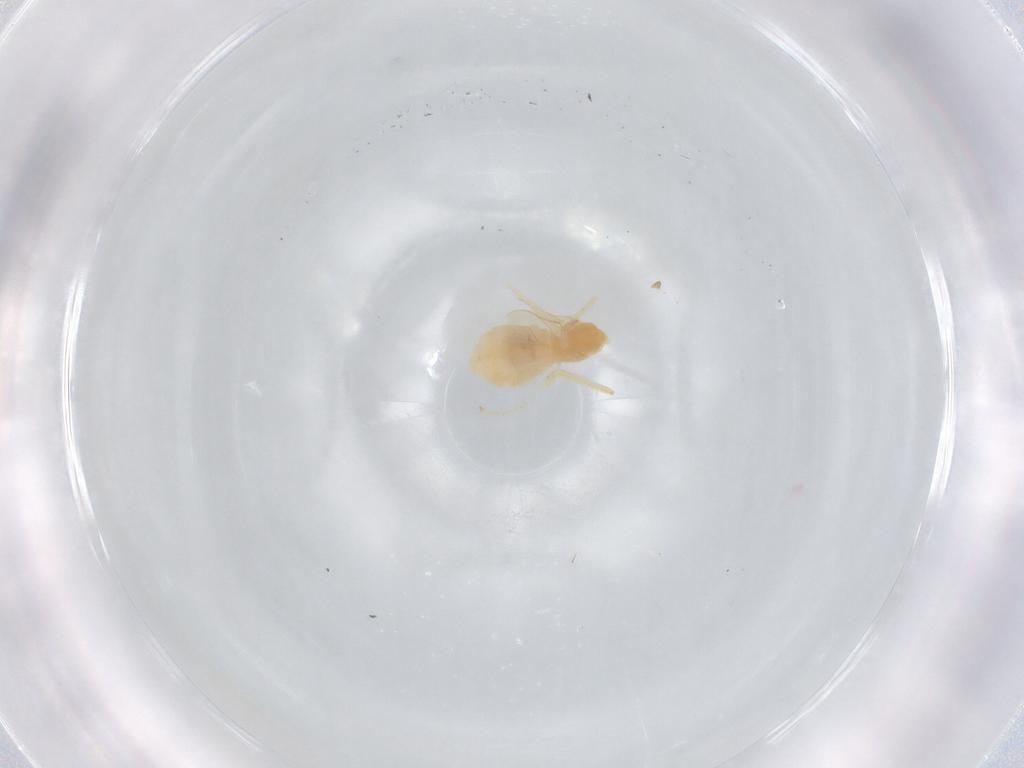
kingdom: Animalia
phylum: Arthropoda
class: Insecta
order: Diptera
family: Cecidomyiidae
